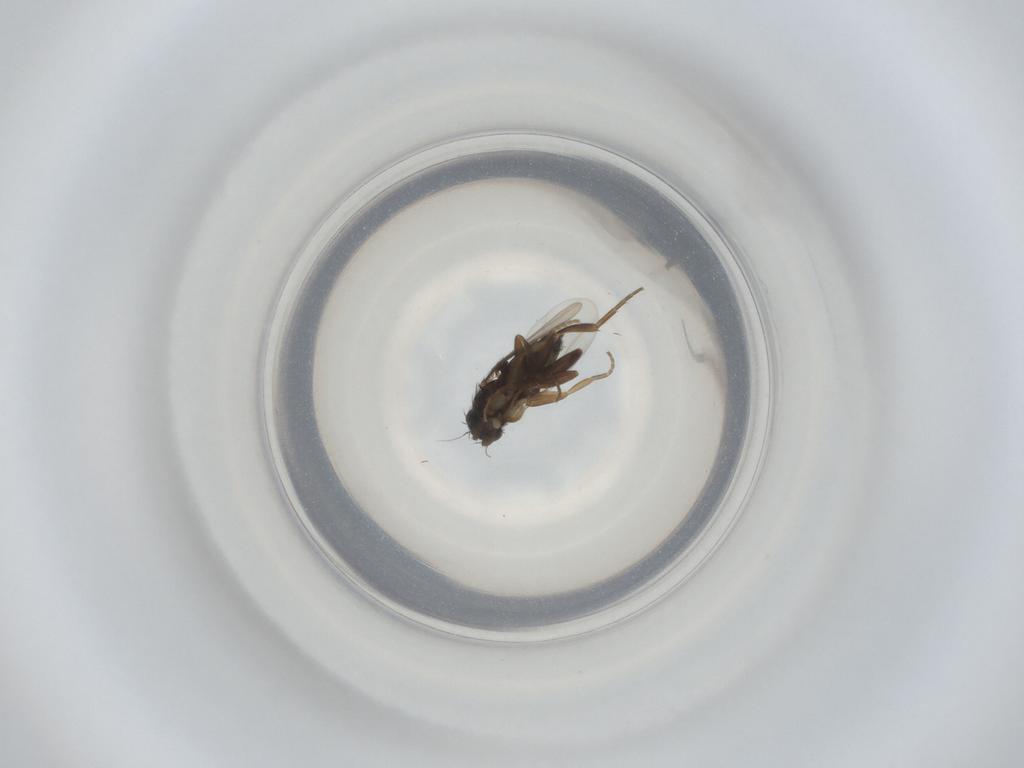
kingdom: Animalia
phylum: Arthropoda
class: Insecta
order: Diptera
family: Phoridae
